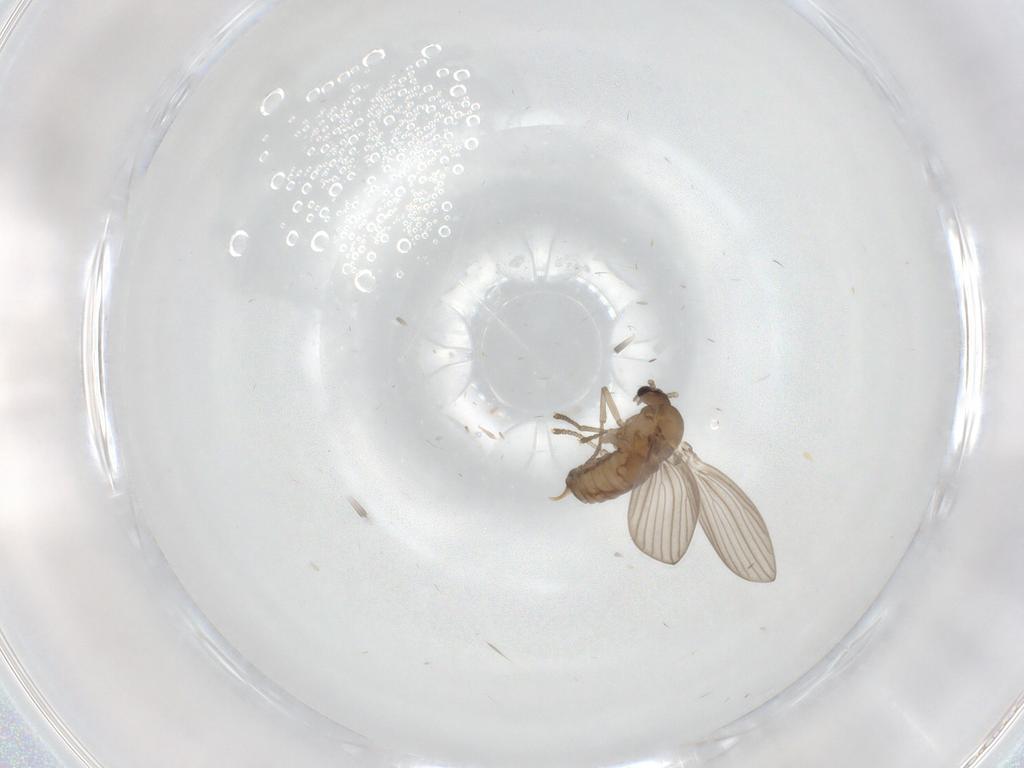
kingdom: Animalia
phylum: Arthropoda
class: Insecta
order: Diptera
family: Psychodidae
